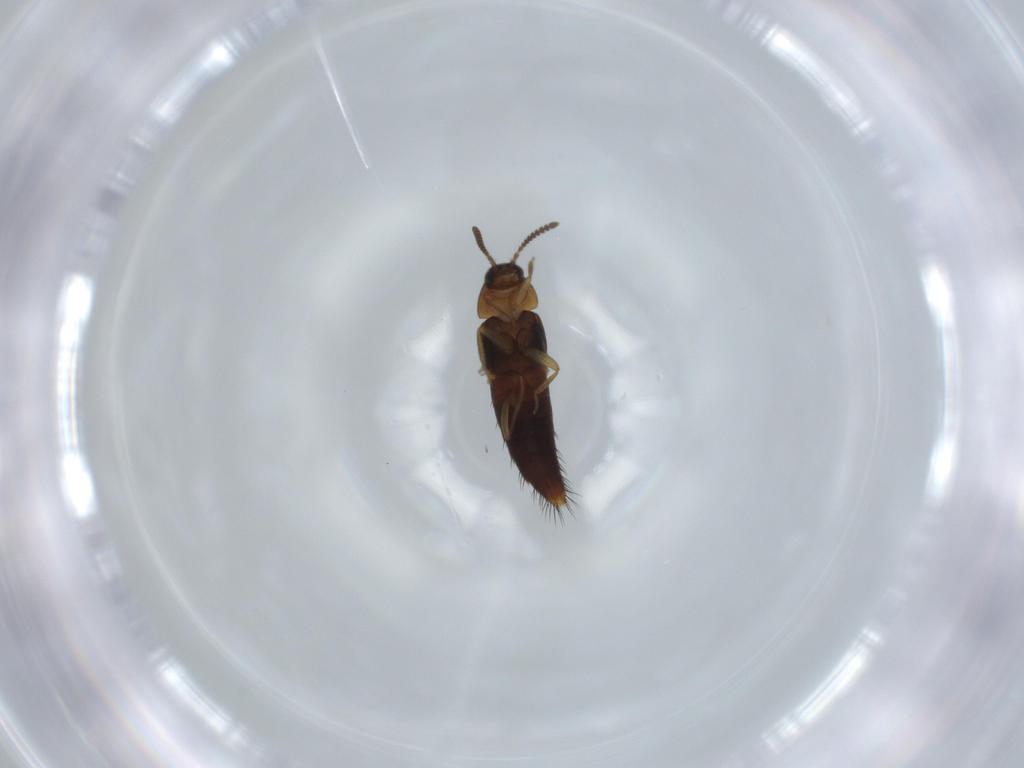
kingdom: Animalia
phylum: Arthropoda
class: Insecta
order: Coleoptera
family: Staphylinidae
